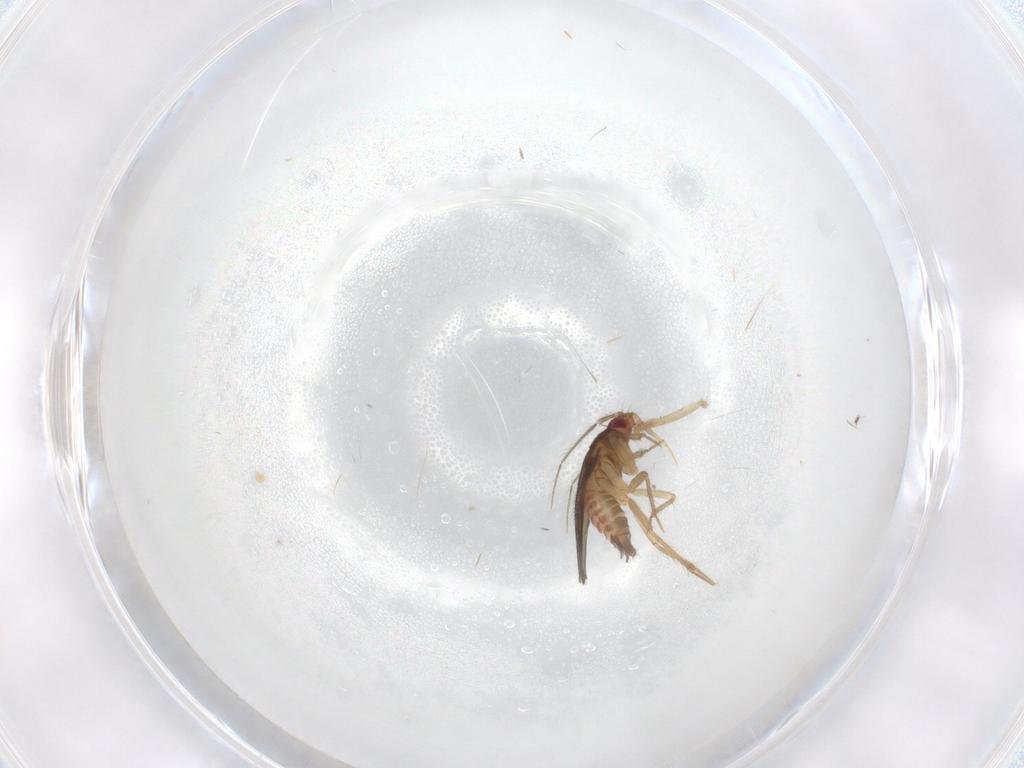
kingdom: Animalia
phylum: Arthropoda
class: Insecta
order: Hemiptera
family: Ceratocombidae
